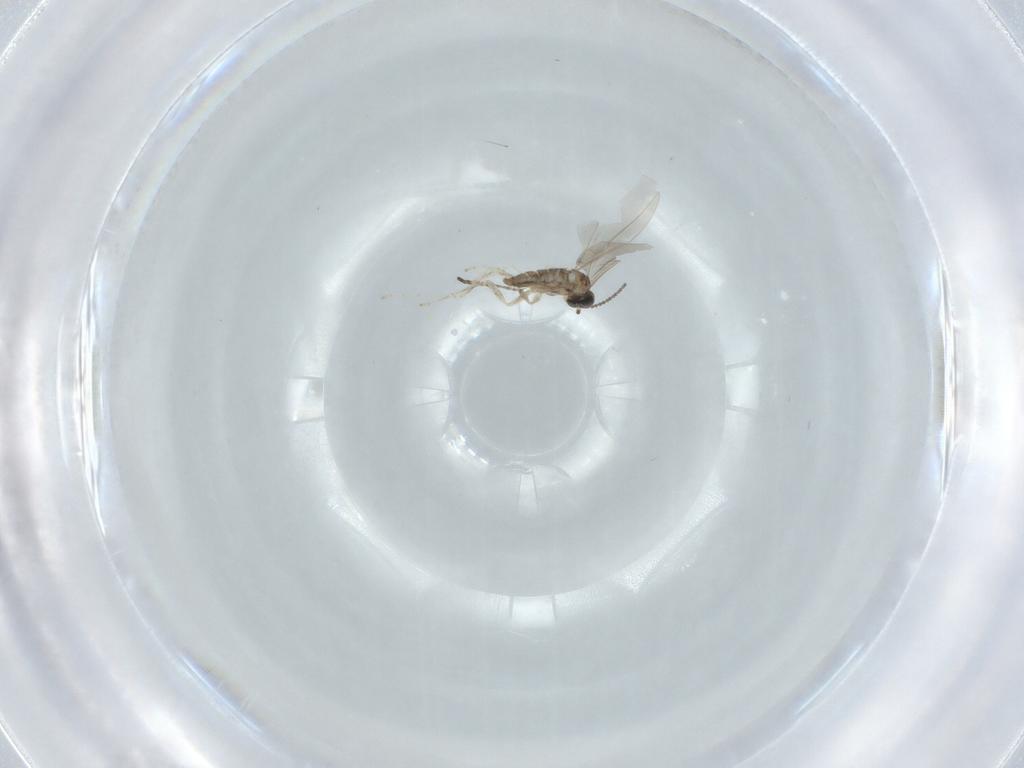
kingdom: Animalia
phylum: Arthropoda
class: Insecta
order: Diptera
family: Cecidomyiidae
